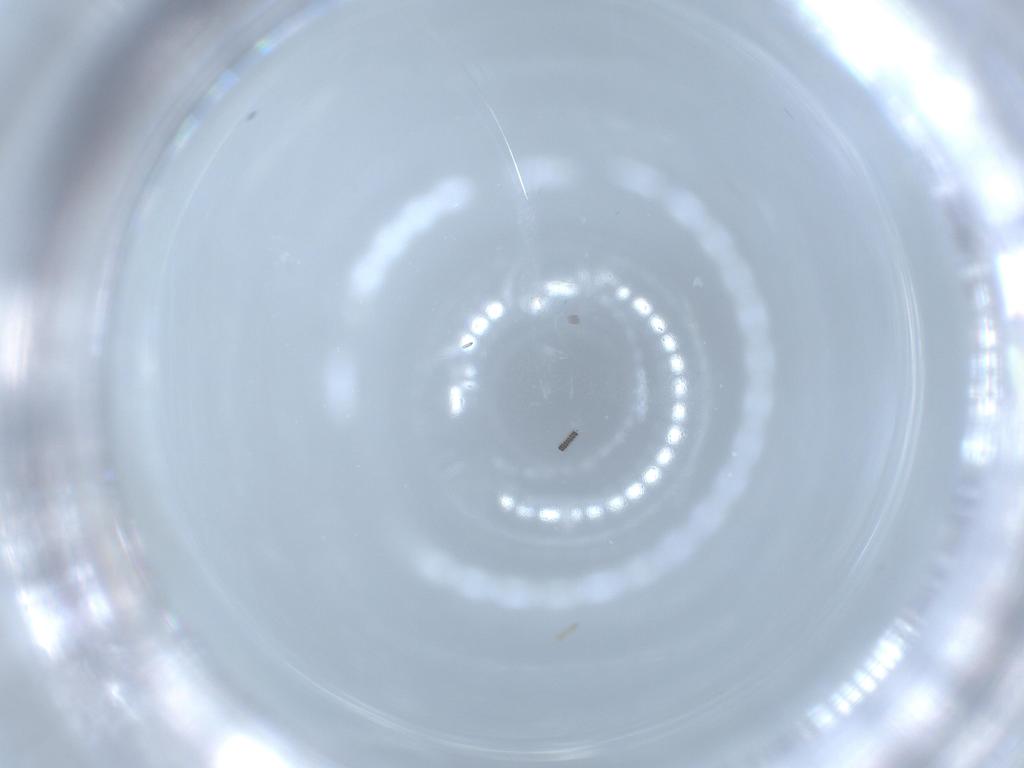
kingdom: Animalia
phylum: Arthropoda
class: Insecta
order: Diptera
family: Sciaridae
